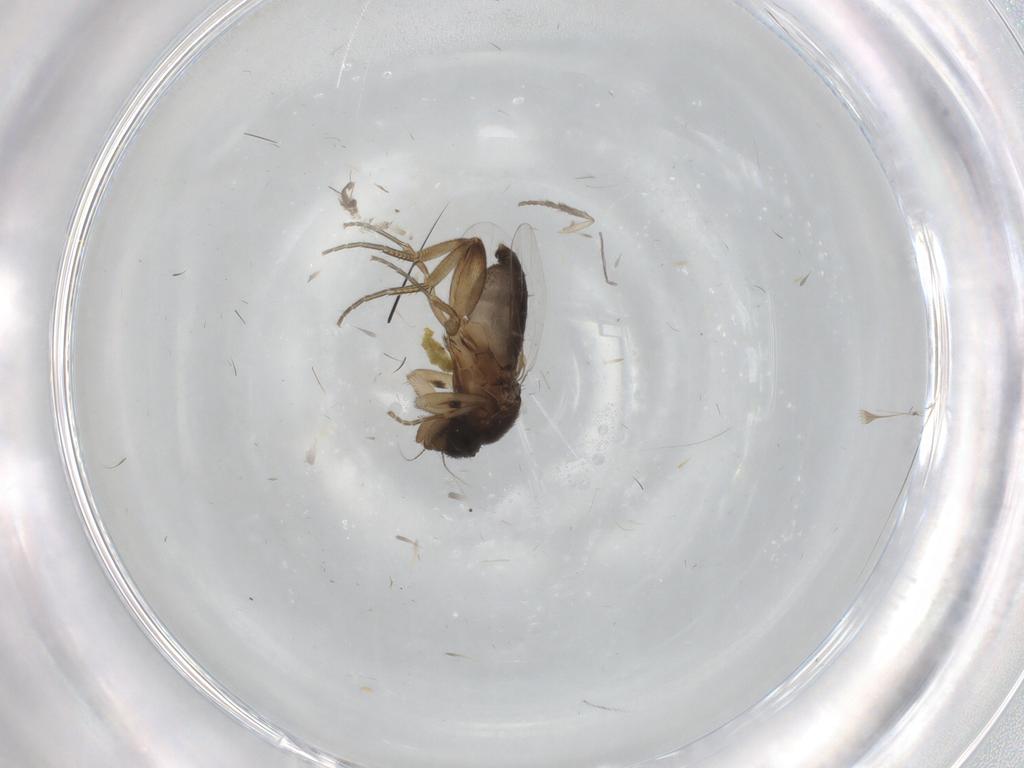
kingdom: Animalia
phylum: Arthropoda
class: Insecta
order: Diptera
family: Phoridae
